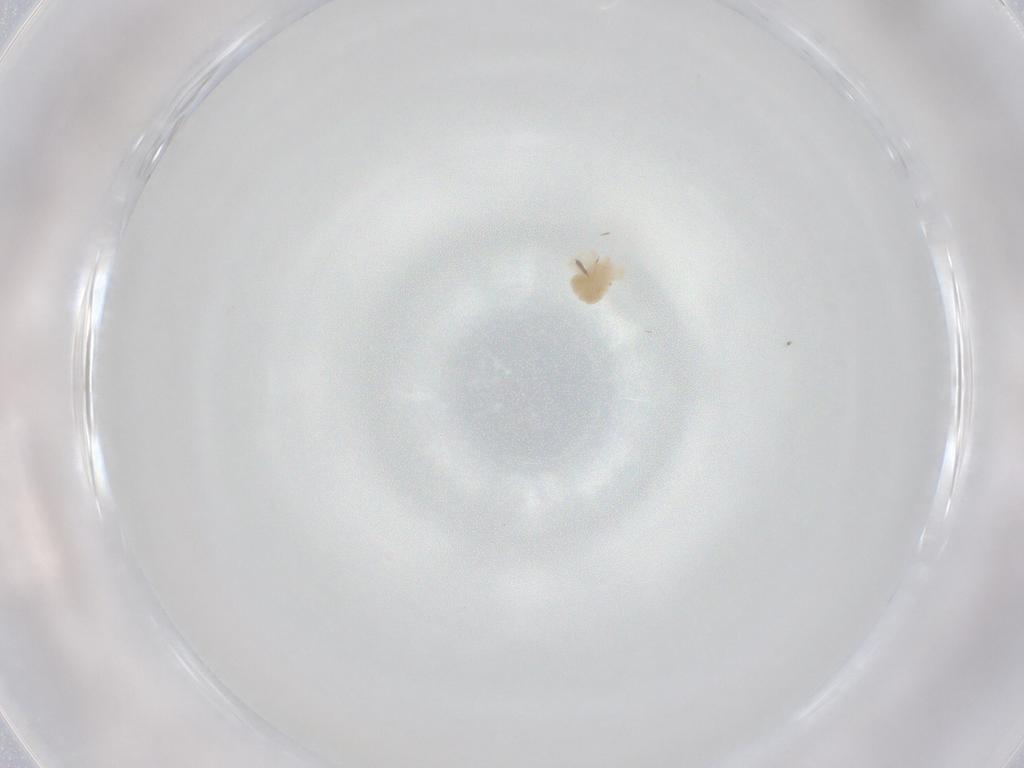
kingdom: Animalia
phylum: Arthropoda
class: Arachnida
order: Trombidiformes
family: Anystidae
